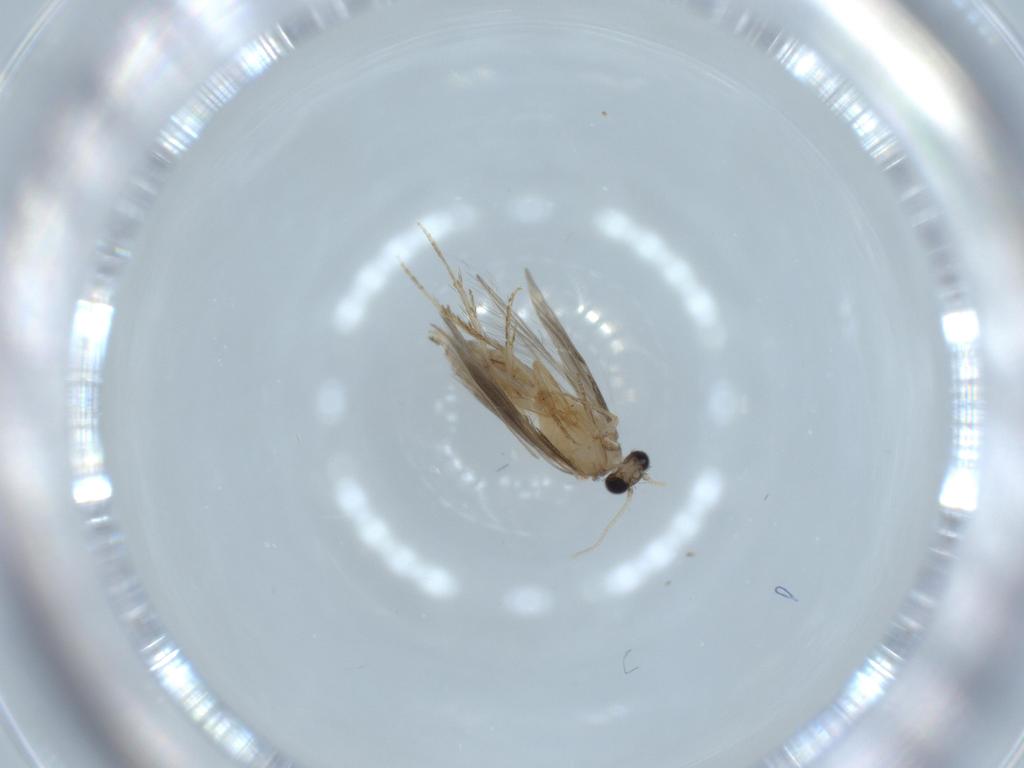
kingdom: Animalia
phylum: Arthropoda
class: Insecta
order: Trichoptera
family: Hydroptilidae
